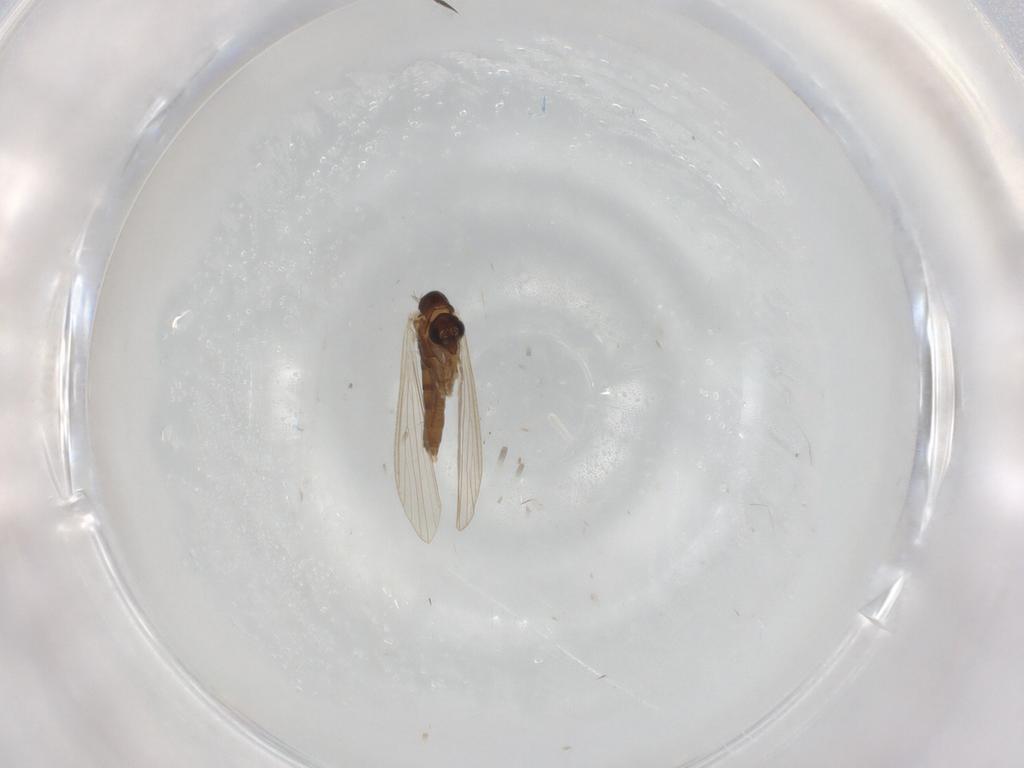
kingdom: Animalia
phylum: Arthropoda
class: Insecta
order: Diptera
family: Psychodidae
